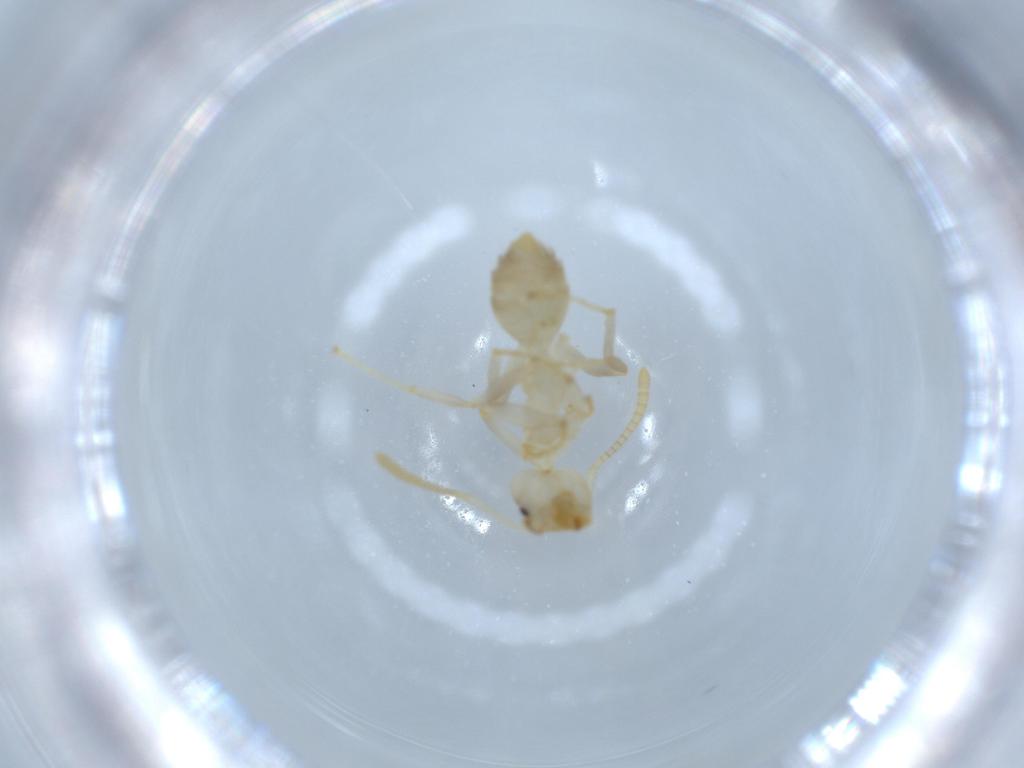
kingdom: Animalia
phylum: Arthropoda
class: Insecta
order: Hymenoptera
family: Formicidae
